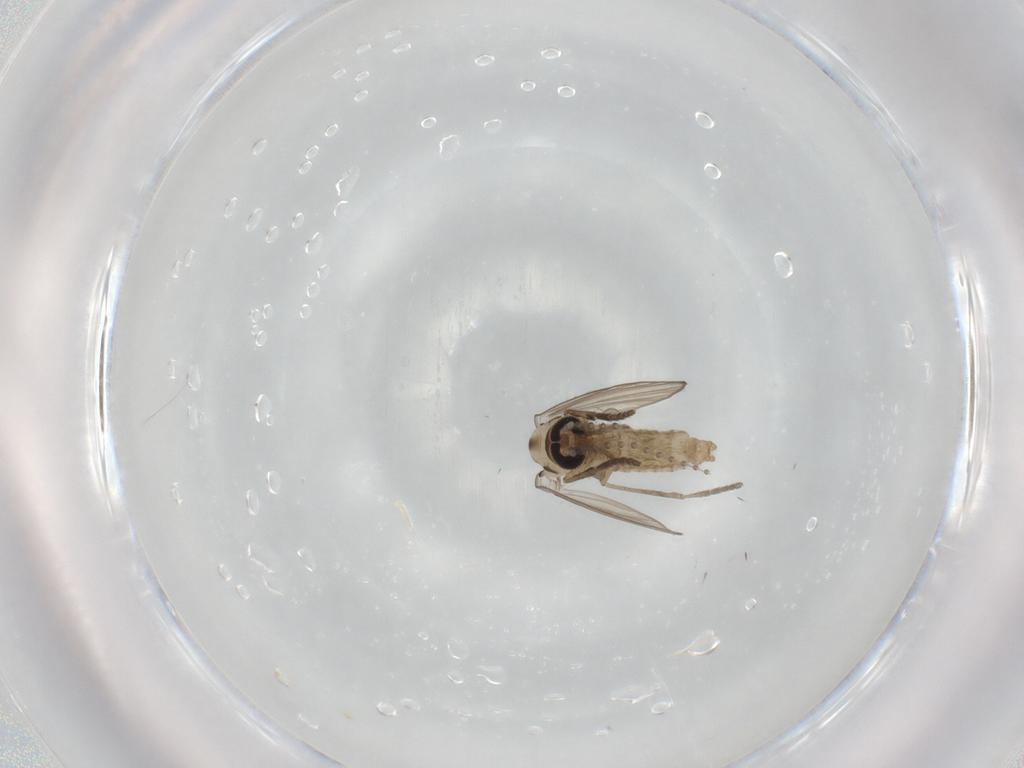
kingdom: Animalia
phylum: Arthropoda
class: Insecta
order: Diptera
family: Psychodidae
